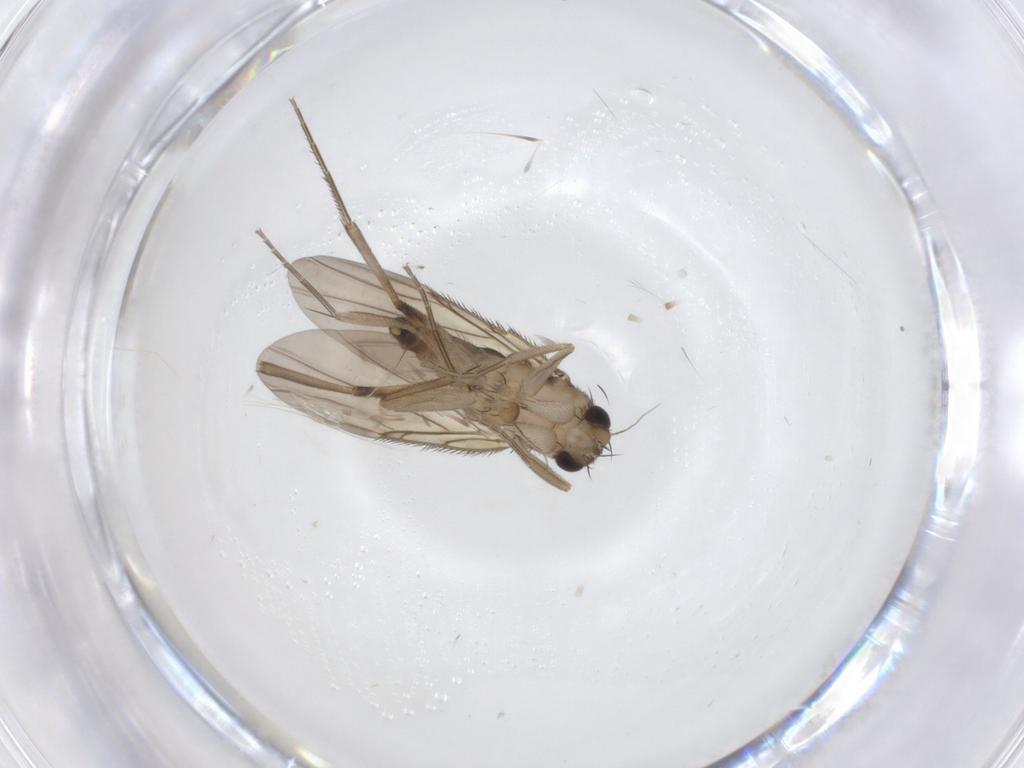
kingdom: Animalia
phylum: Arthropoda
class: Insecta
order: Diptera
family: Phoridae
